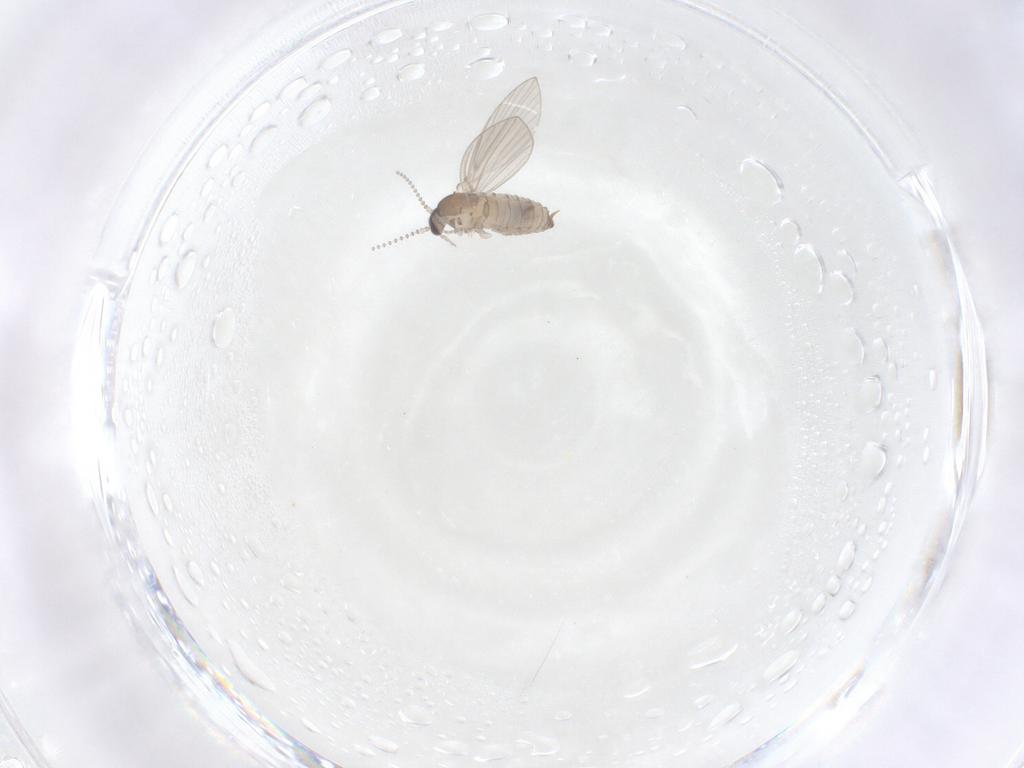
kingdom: Animalia
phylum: Arthropoda
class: Insecta
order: Diptera
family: Psychodidae
